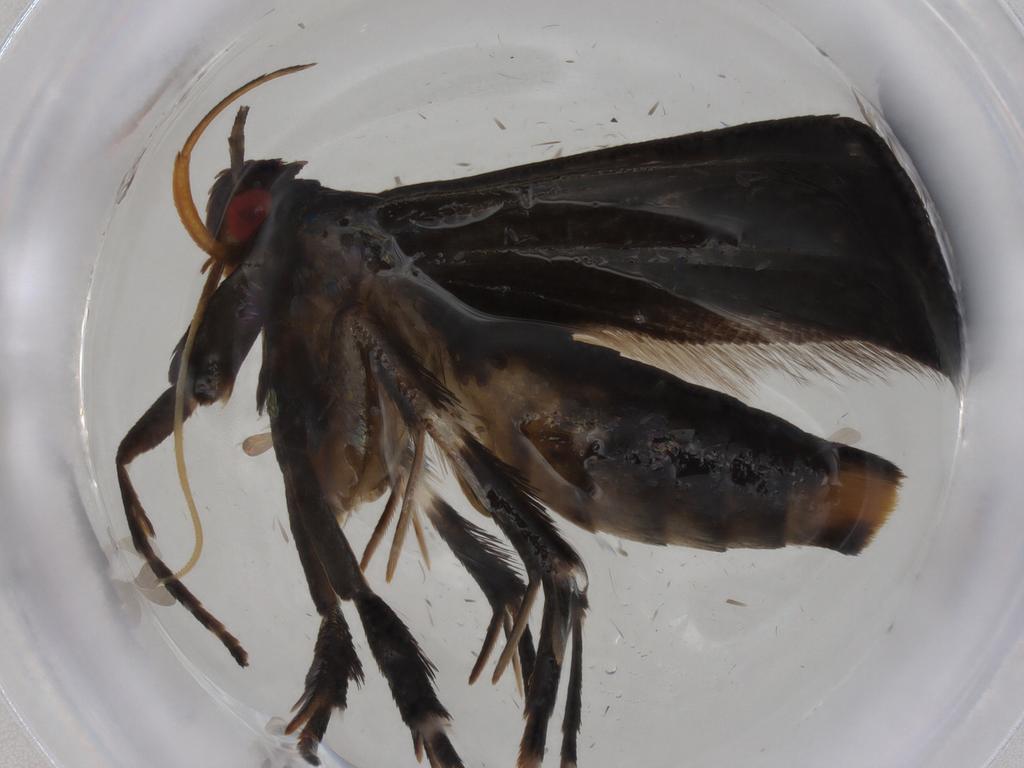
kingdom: Animalia
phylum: Arthropoda
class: Insecta
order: Lepidoptera
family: Gelechiidae
